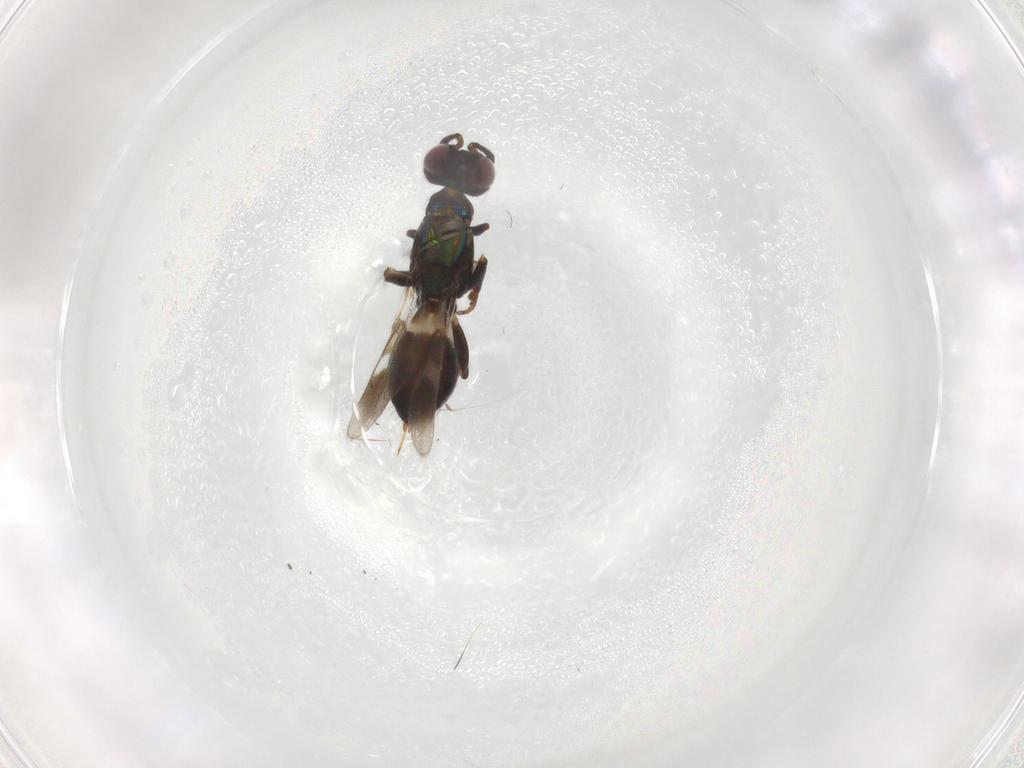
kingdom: Animalia
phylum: Arthropoda
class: Insecta
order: Hymenoptera
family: Eupelmidae
